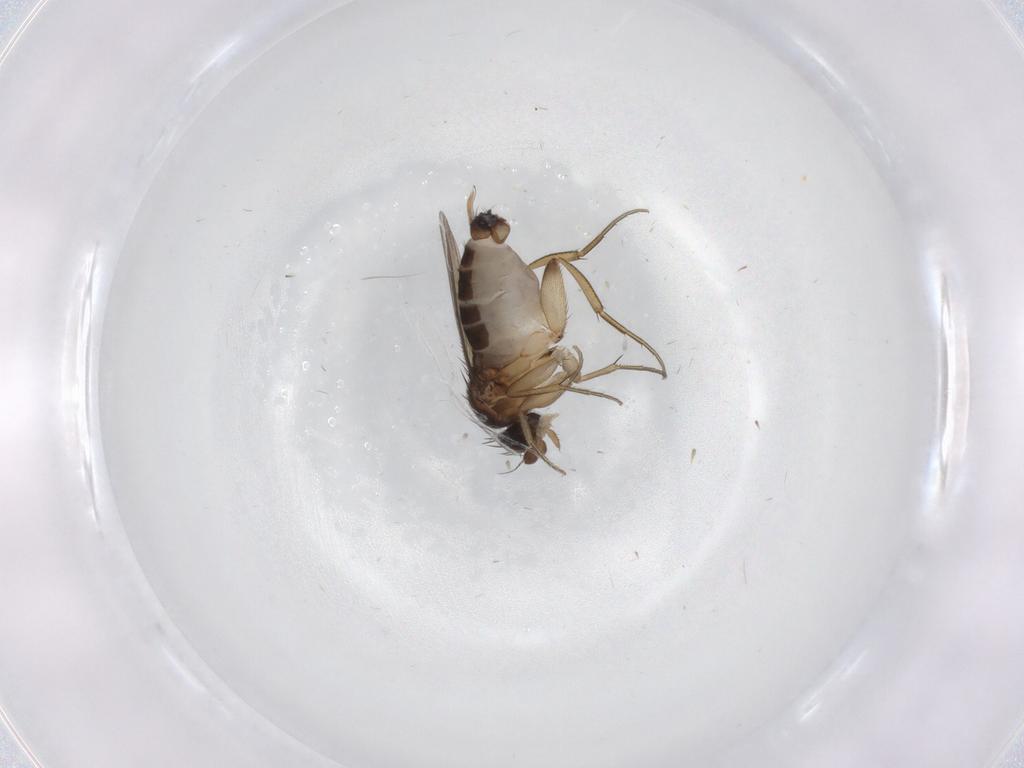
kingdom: Animalia
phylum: Arthropoda
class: Insecta
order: Diptera
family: Phoridae
